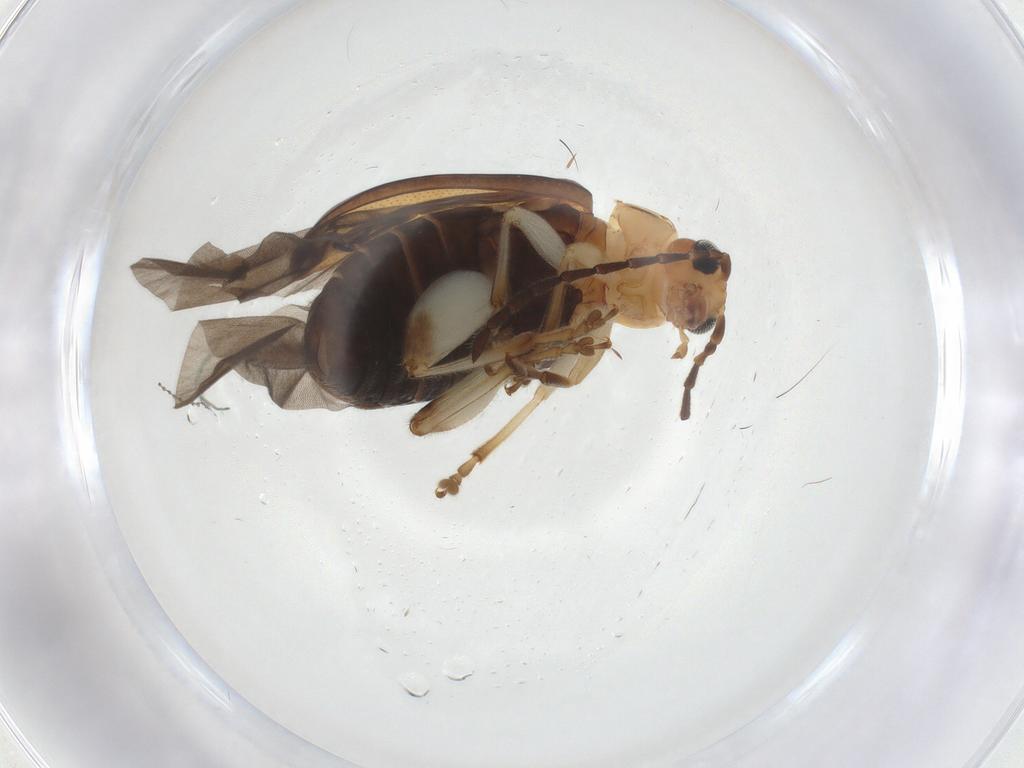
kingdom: Animalia
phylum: Arthropoda
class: Insecta
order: Coleoptera
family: Chrysomelidae
